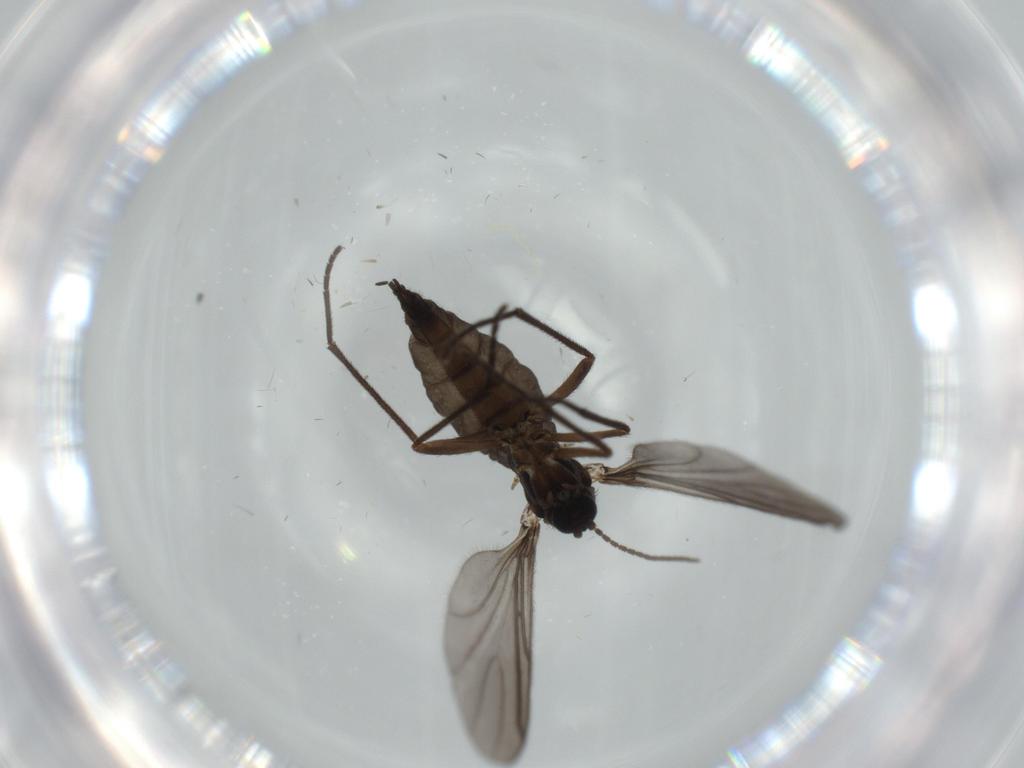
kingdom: Animalia
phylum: Arthropoda
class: Insecta
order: Diptera
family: Sciaridae
